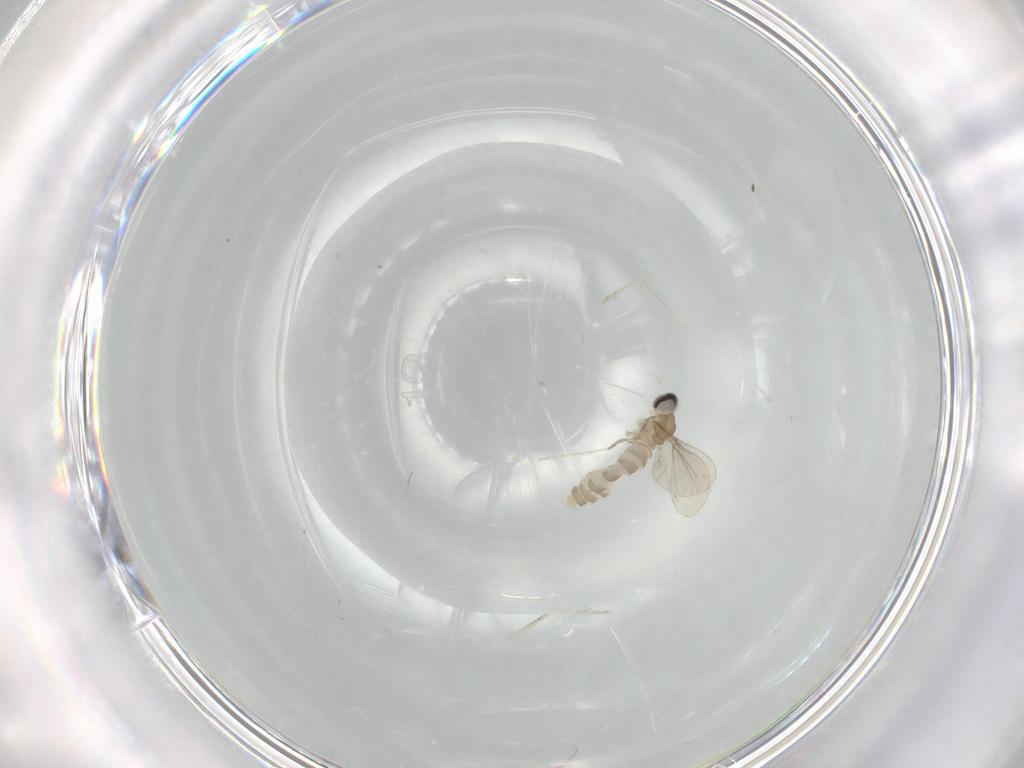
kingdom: Animalia
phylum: Arthropoda
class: Insecta
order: Diptera
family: Cecidomyiidae
